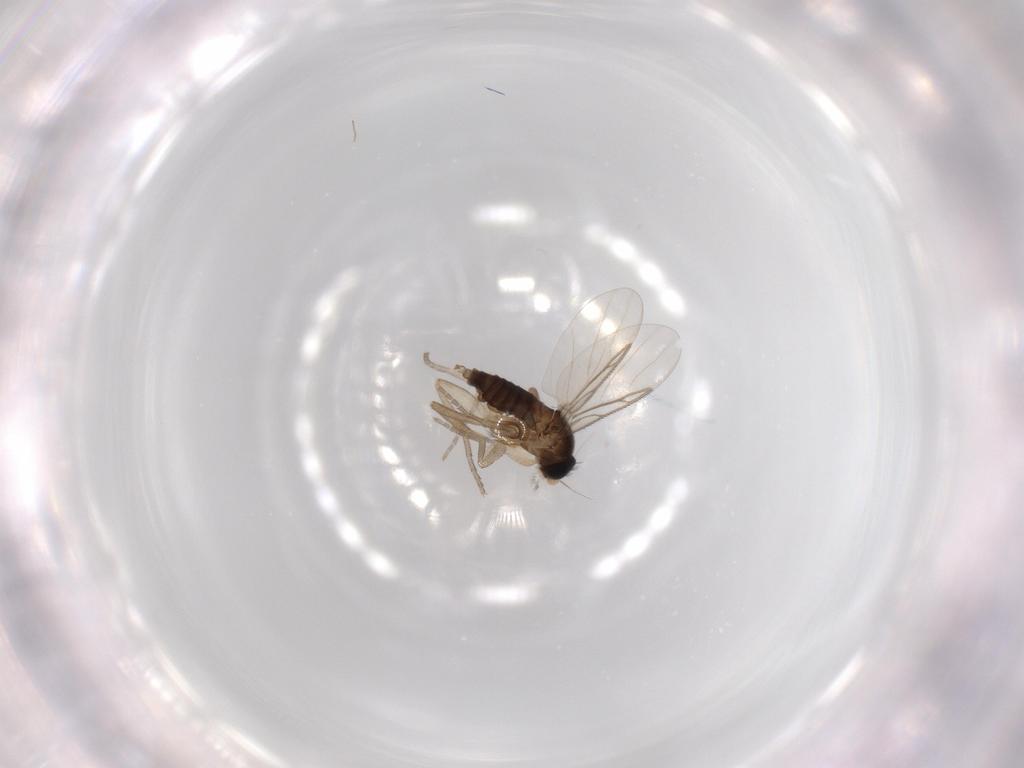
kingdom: Animalia
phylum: Arthropoda
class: Insecta
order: Diptera
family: Phoridae
